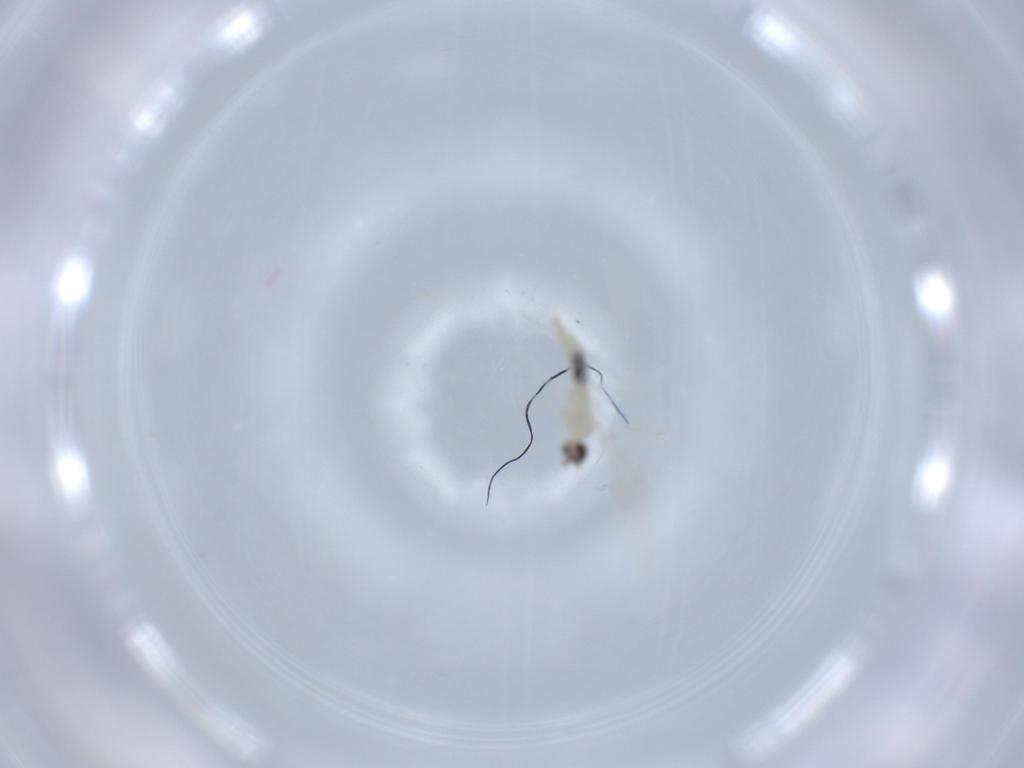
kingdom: Animalia
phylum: Arthropoda
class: Insecta
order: Diptera
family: Cecidomyiidae
